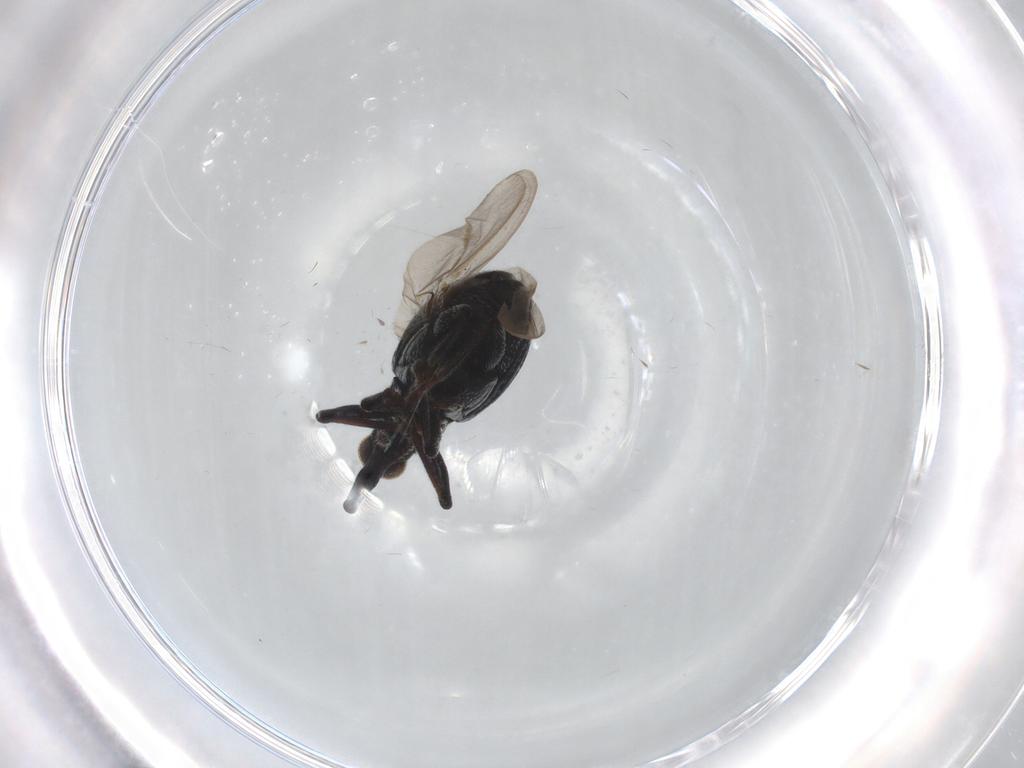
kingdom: Animalia
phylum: Arthropoda
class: Insecta
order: Coleoptera
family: Brentidae
